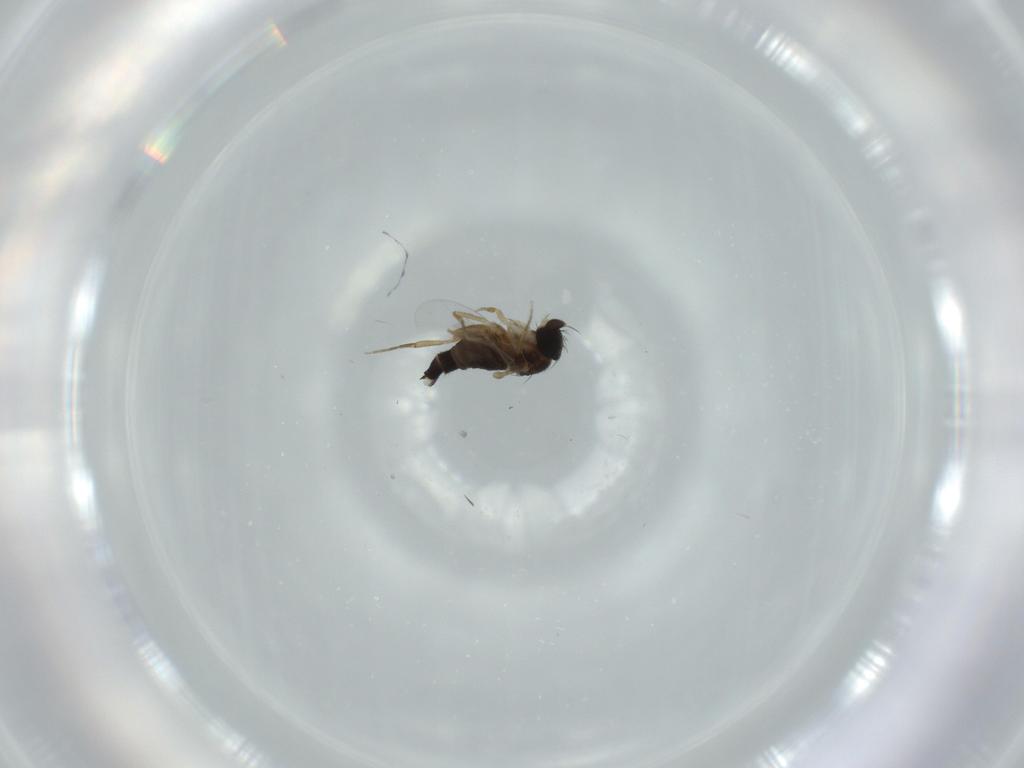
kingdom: Animalia
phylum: Arthropoda
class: Insecta
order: Diptera
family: Phoridae
